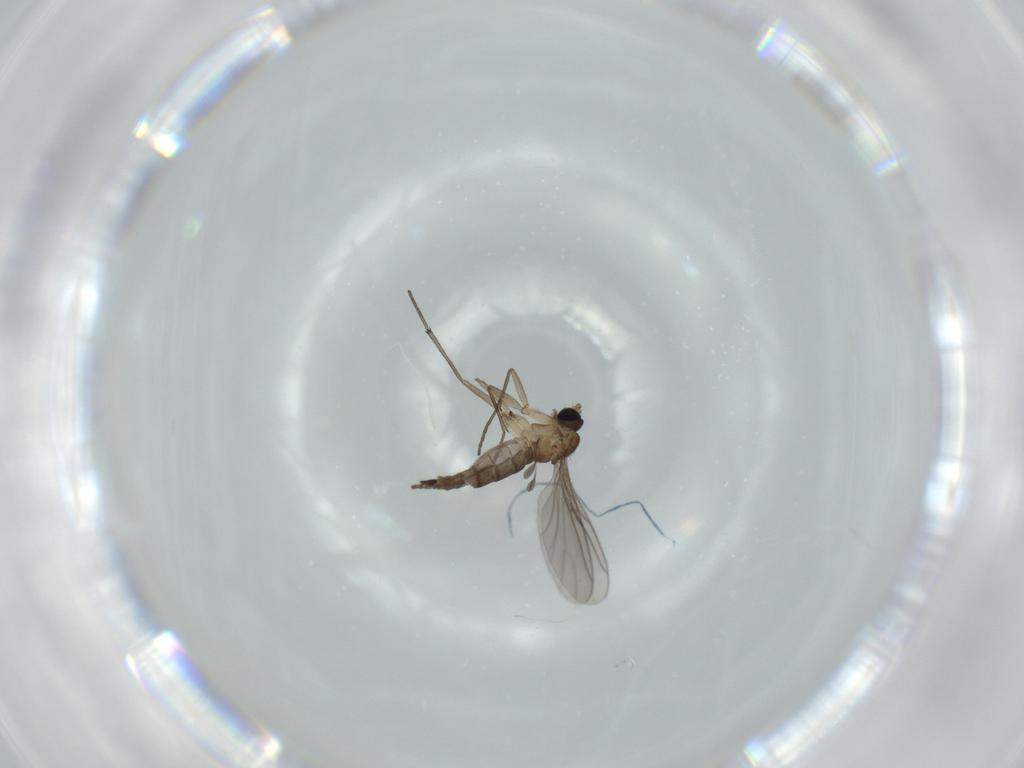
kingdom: Animalia
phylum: Arthropoda
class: Insecta
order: Diptera
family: Sciaridae
